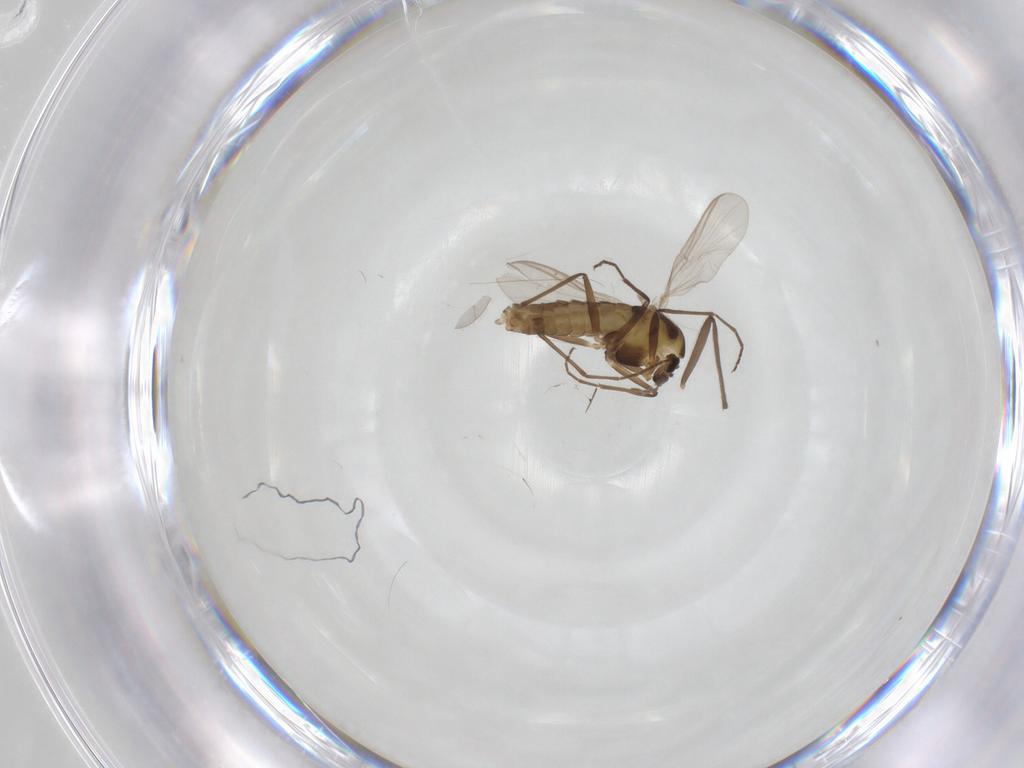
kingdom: Animalia
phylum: Arthropoda
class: Insecta
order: Diptera
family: Chironomidae
